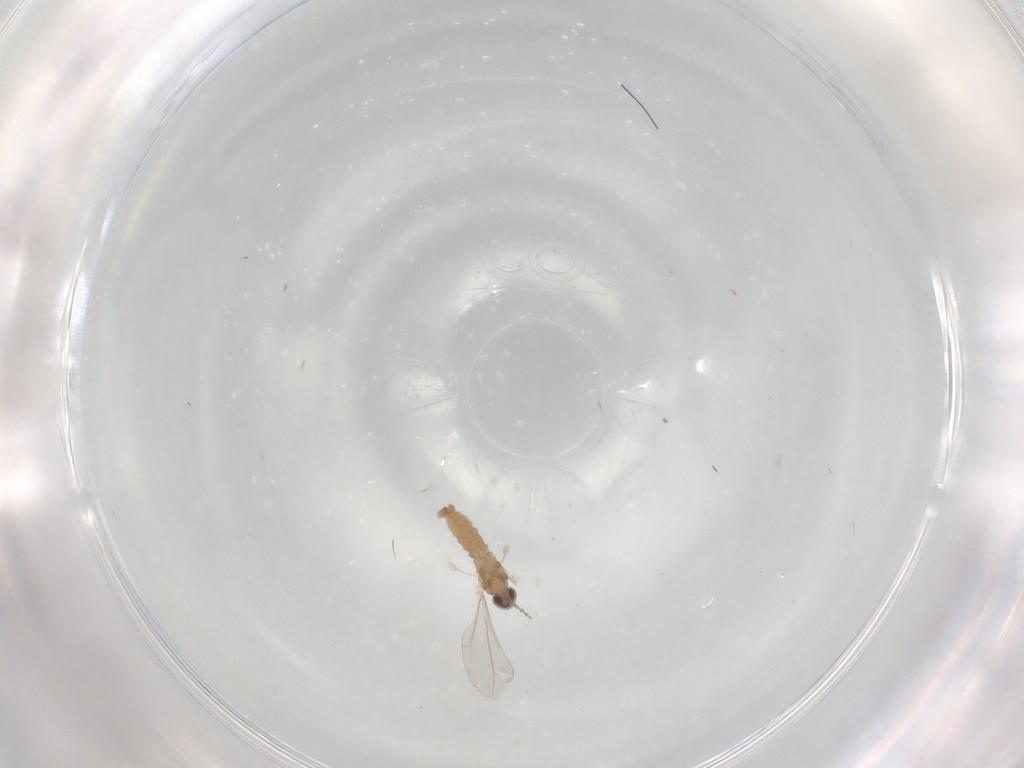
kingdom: Animalia
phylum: Arthropoda
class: Insecta
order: Diptera
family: Cecidomyiidae
